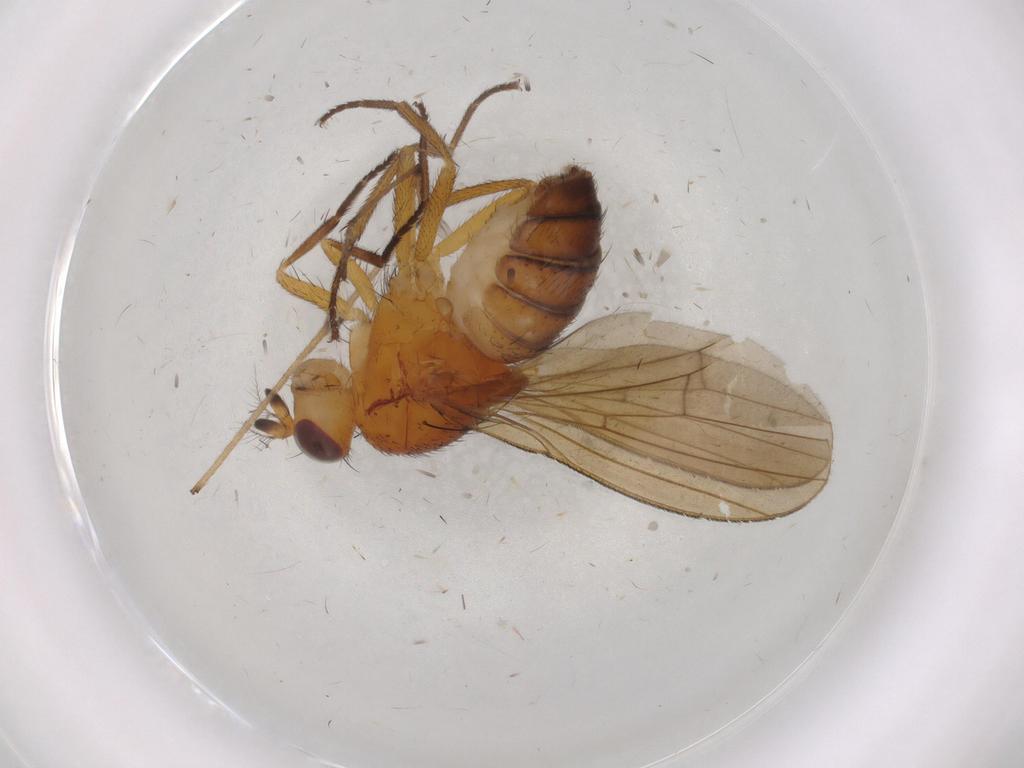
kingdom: Animalia
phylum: Arthropoda
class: Insecta
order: Diptera
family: Lauxaniidae
